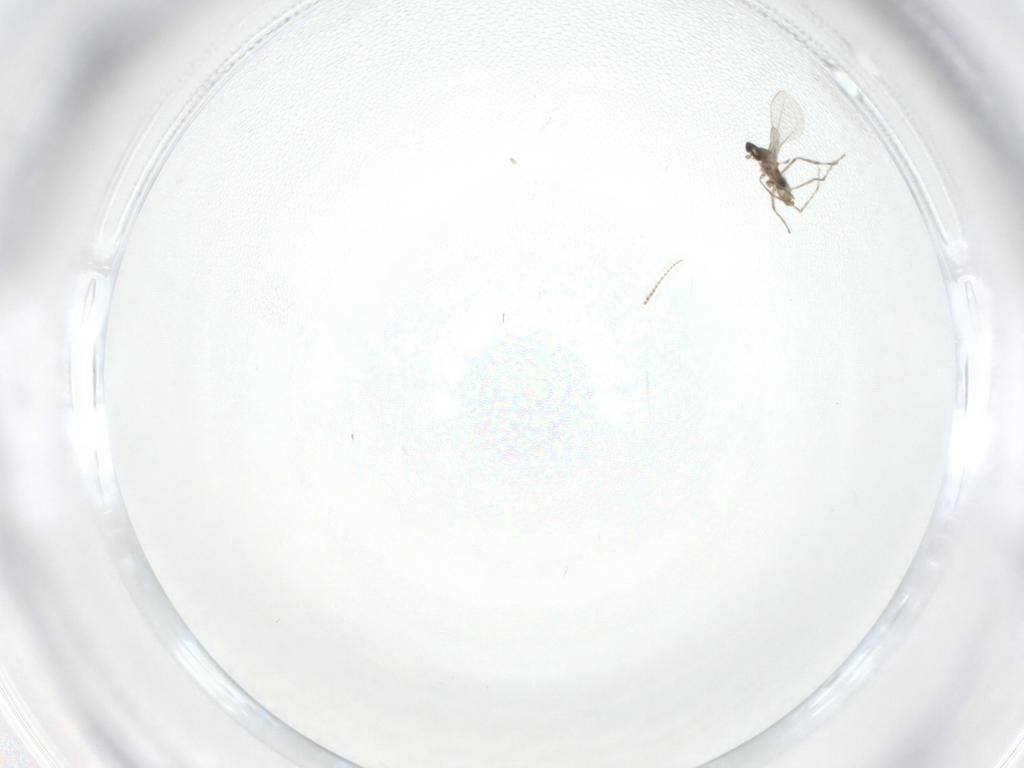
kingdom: Animalia
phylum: Arthropoda
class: Insecta
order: Diptera
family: Psychodidae
